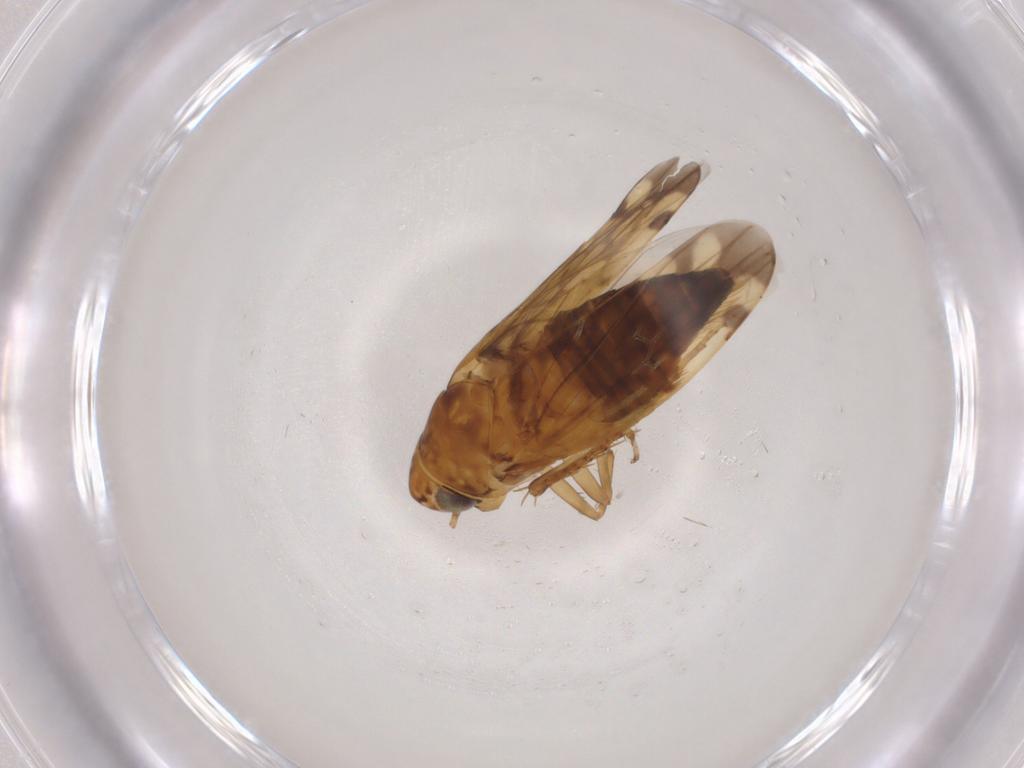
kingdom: Animalia
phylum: Arthropoda
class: Insecta
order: Hemiptera
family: Cicadellidae
